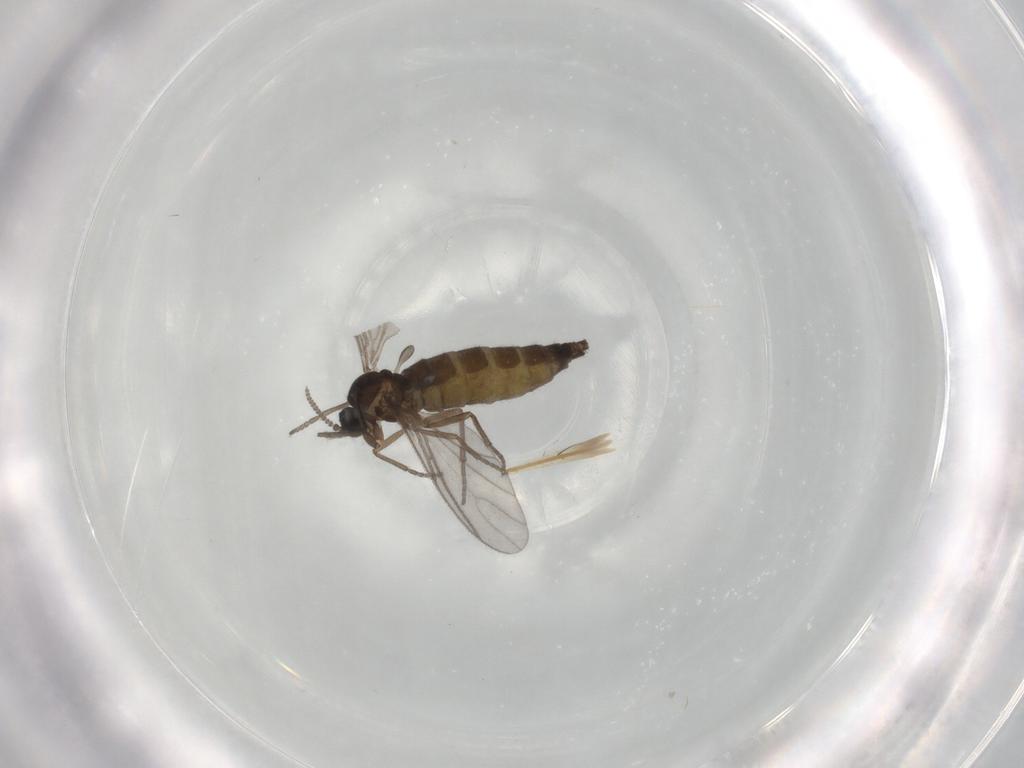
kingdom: Animalia
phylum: Arthropoda
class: Insecta
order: Diptera
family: Sciaridae
